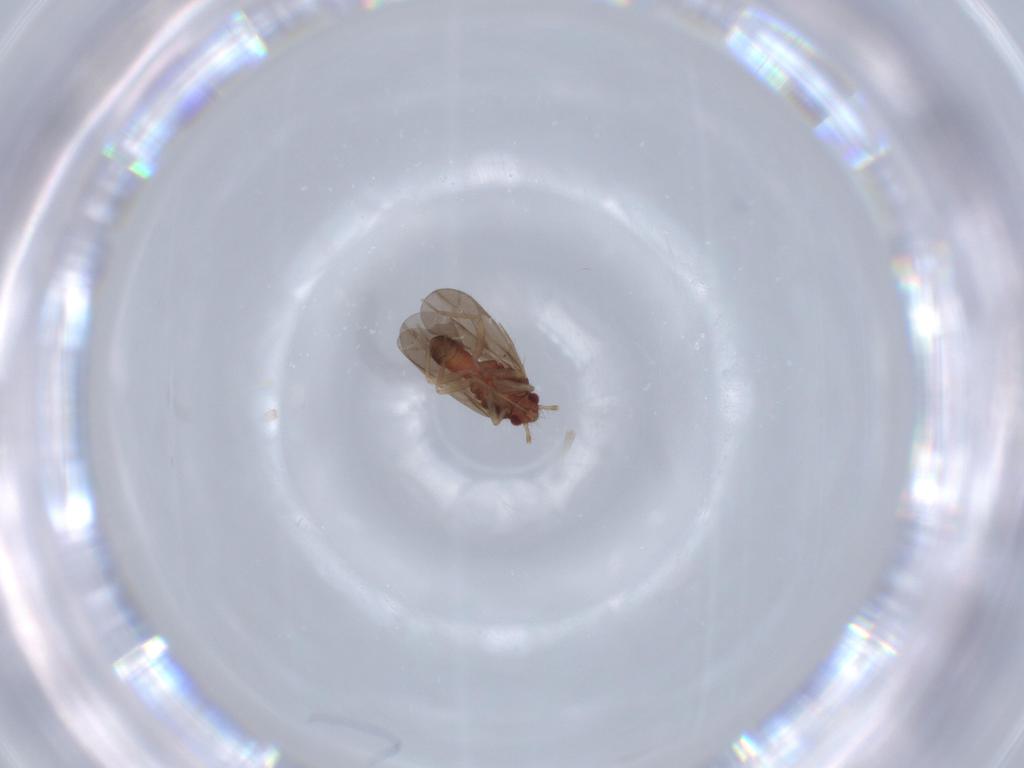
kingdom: Animalia
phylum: Arthropoda
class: Insecta
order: Hemiptera
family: Ceratocombidae
